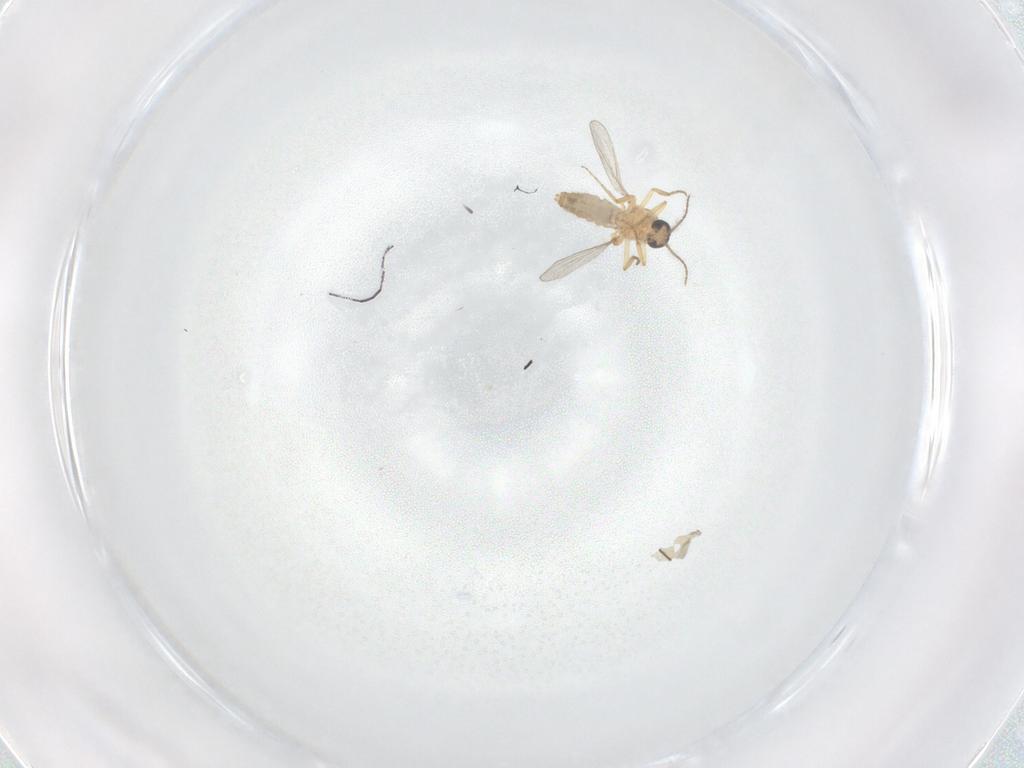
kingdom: Animalia
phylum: Arthropoda
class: Insecta
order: Diptera
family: Ceratopogonidae
